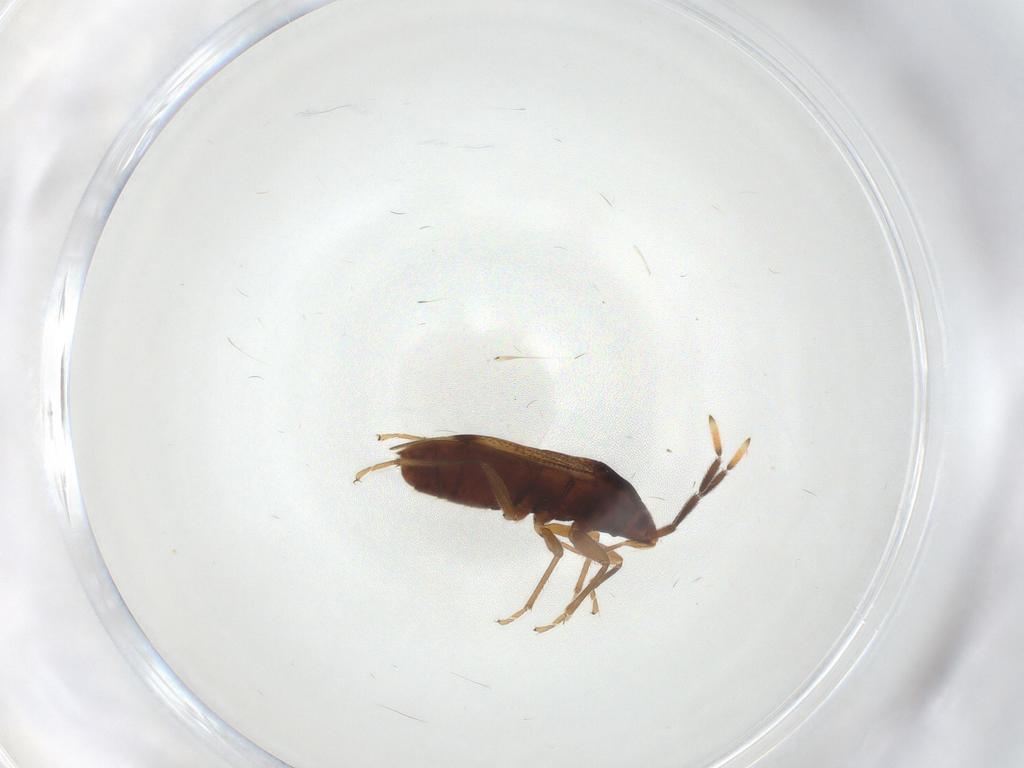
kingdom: Animalia
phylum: Arthropoda
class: Insecta
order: Hemiptera
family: Rhyparochromidae
